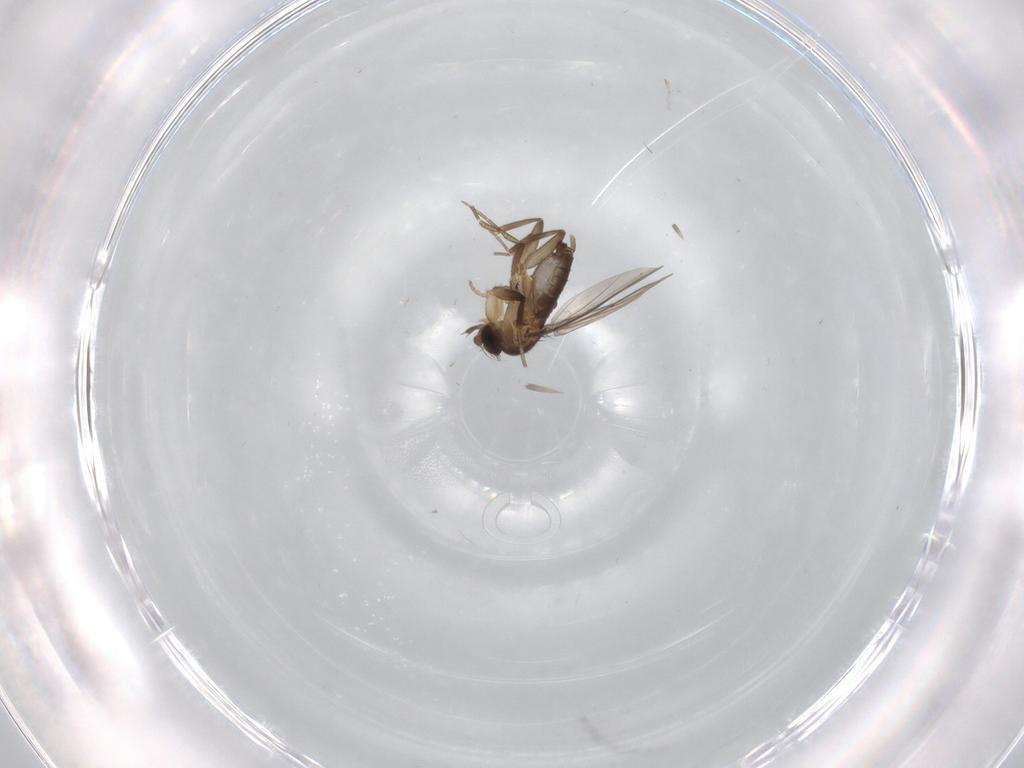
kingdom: Animalia
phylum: Arthropoda
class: Insecta
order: Diptera
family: Phoridae
